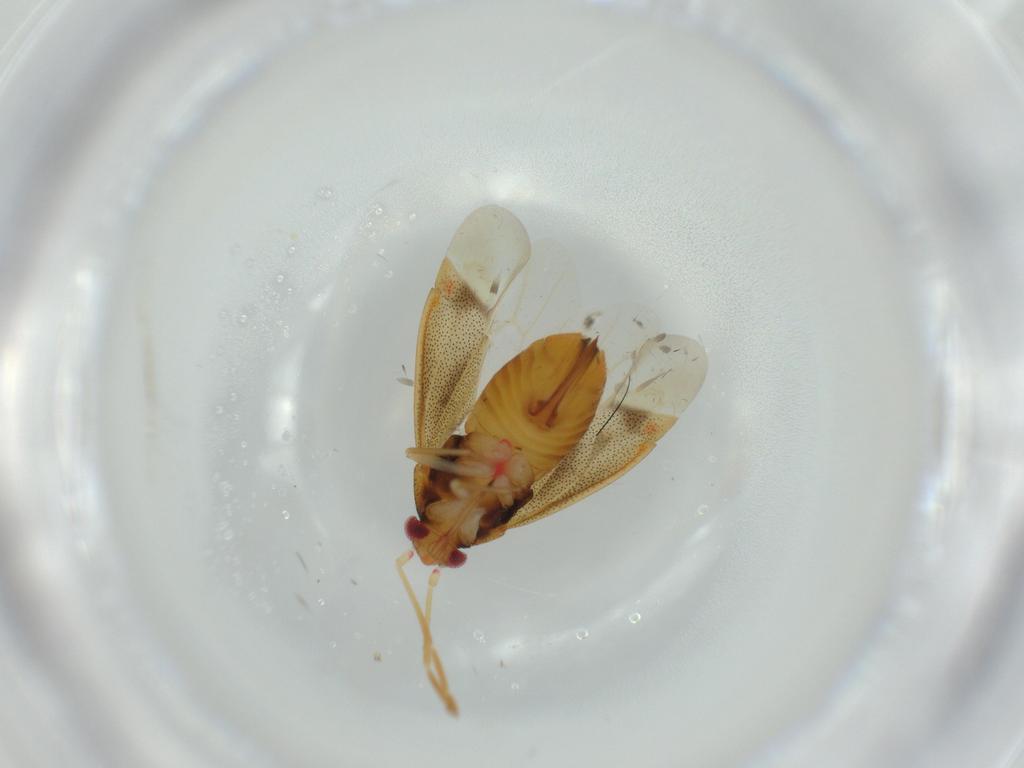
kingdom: Animalia
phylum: Arthropoda
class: Insecta
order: Hemiptera
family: Miridae
